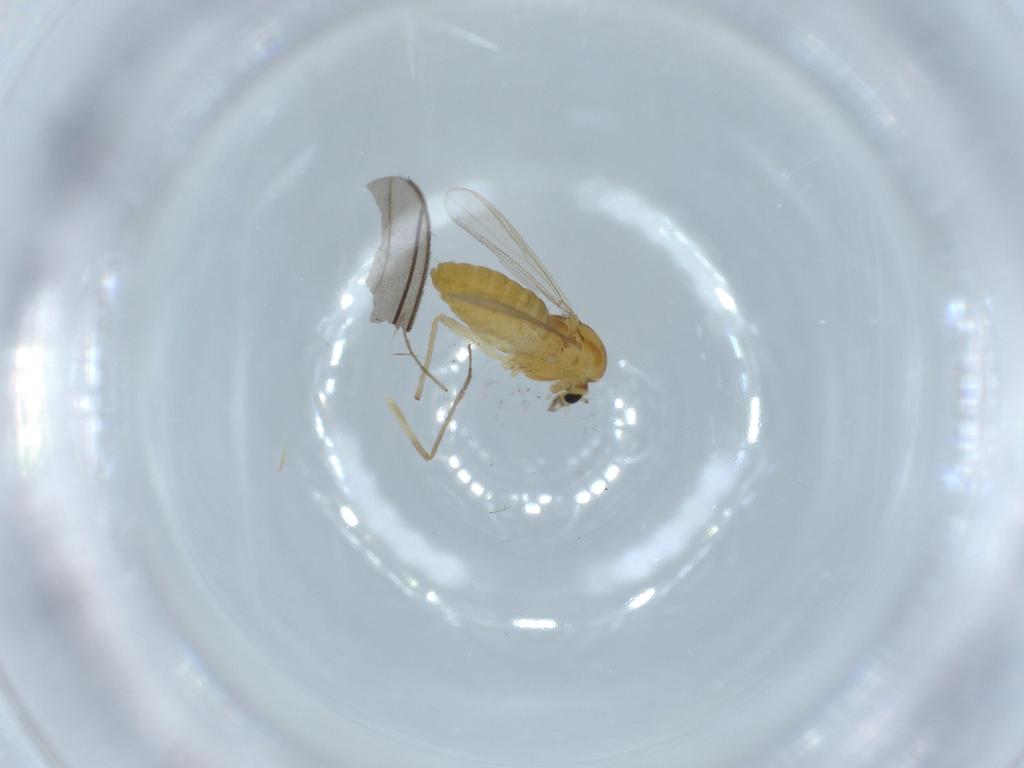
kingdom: Animalia
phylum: Arthropoda
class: Insecta
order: Diptera
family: Chironomidae
